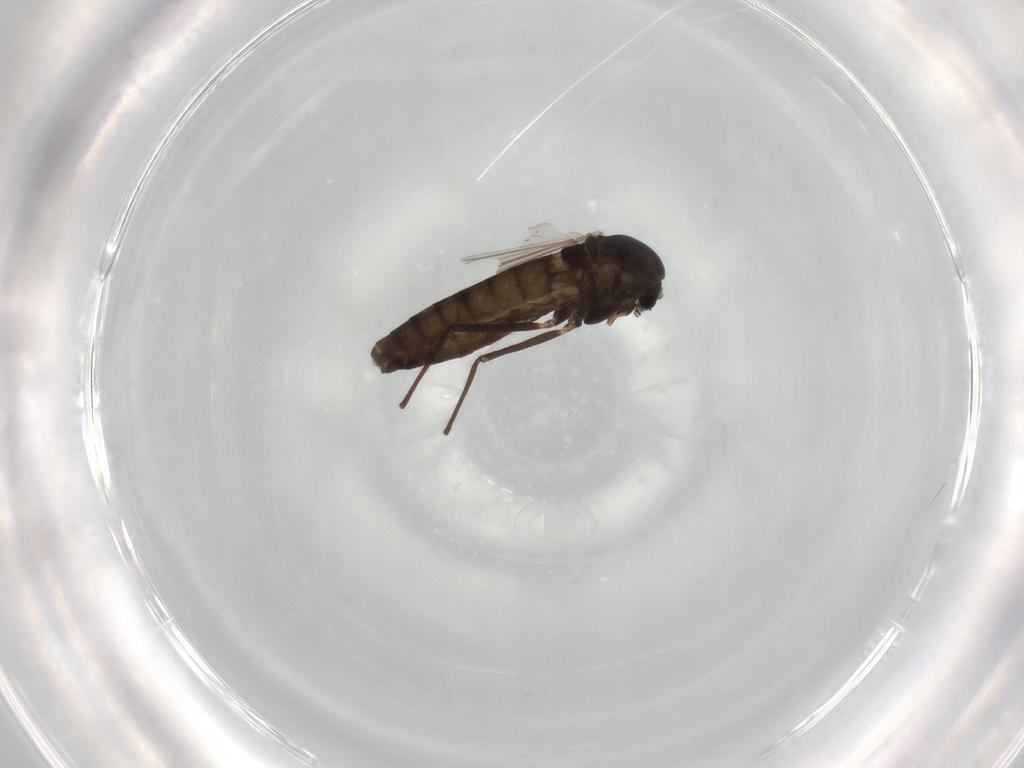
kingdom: Animalia
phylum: Arthropoda
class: Insecta
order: Diptera
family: Chironomidae
